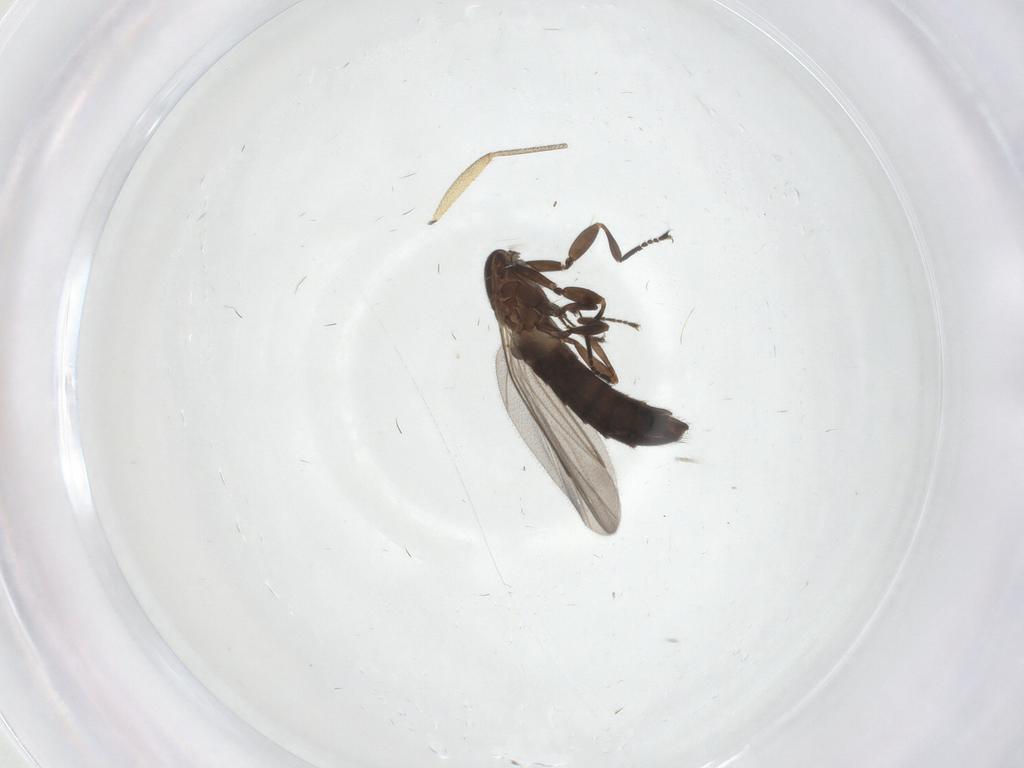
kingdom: Animalia
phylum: Arthropoda
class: Insecta
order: Diptera
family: Scatopsidae
